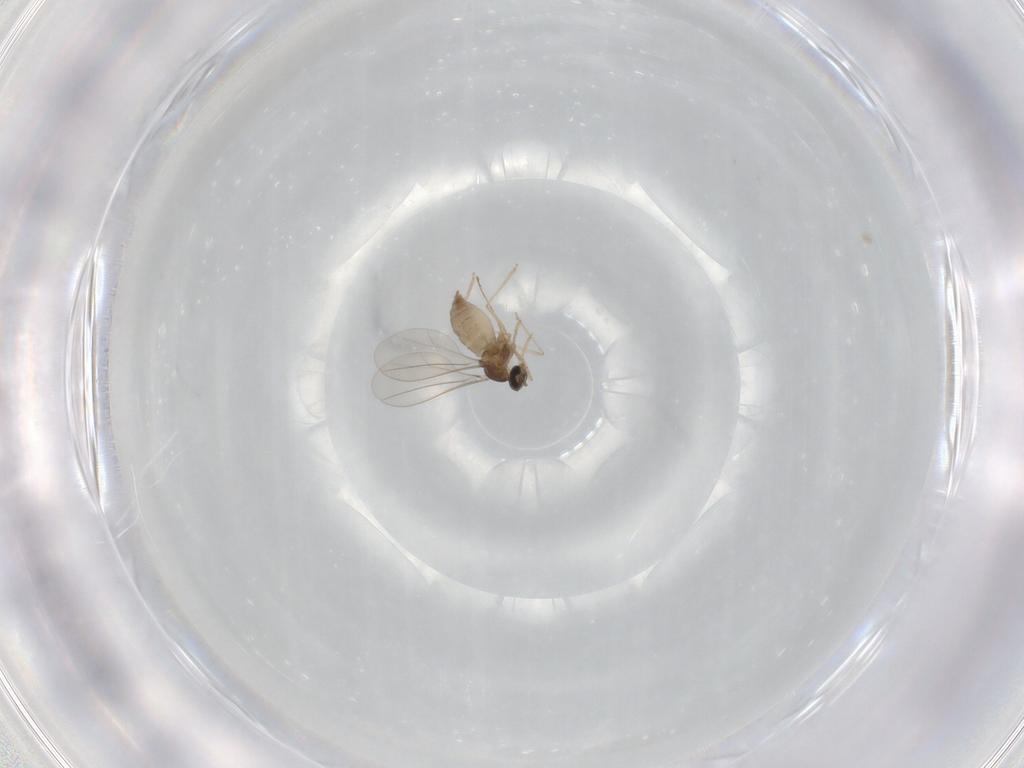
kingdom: Animalia
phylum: Arthropoda
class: Insecta
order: Diptera
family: Cecidomyiidae
